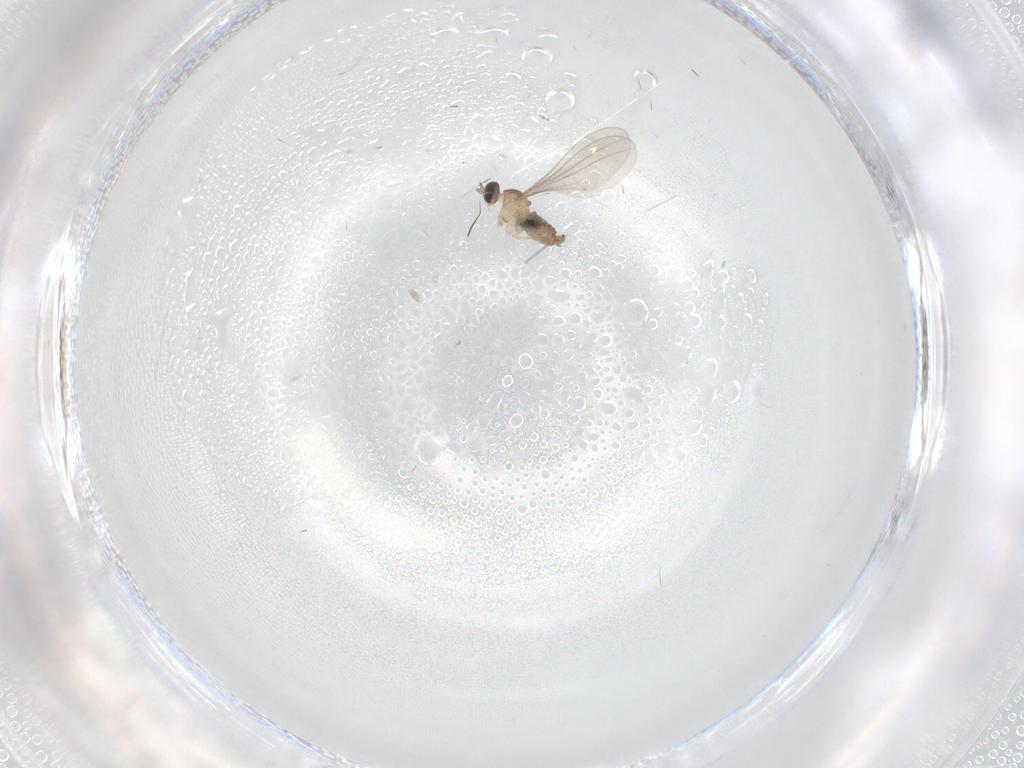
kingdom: Animalia
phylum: Arthropoda
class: Insecta
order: Diptera
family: Cecidomyiidae
